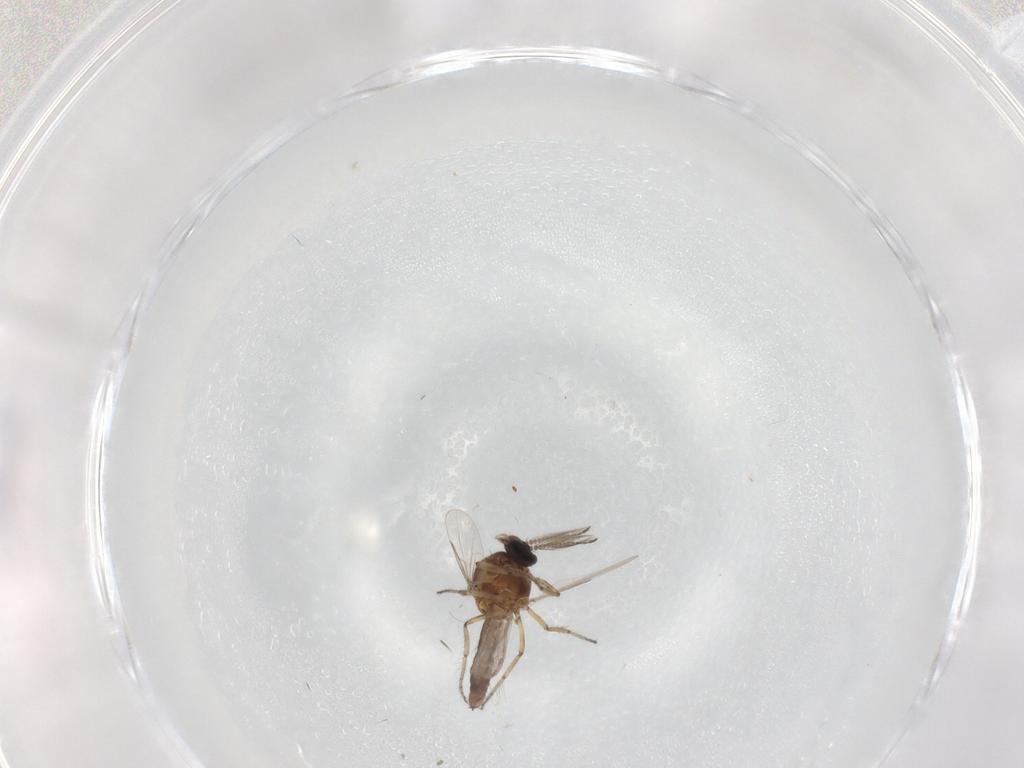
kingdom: Animalia
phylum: Arthropoda
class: Insecta
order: Diptera
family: Ceratopogonidae
